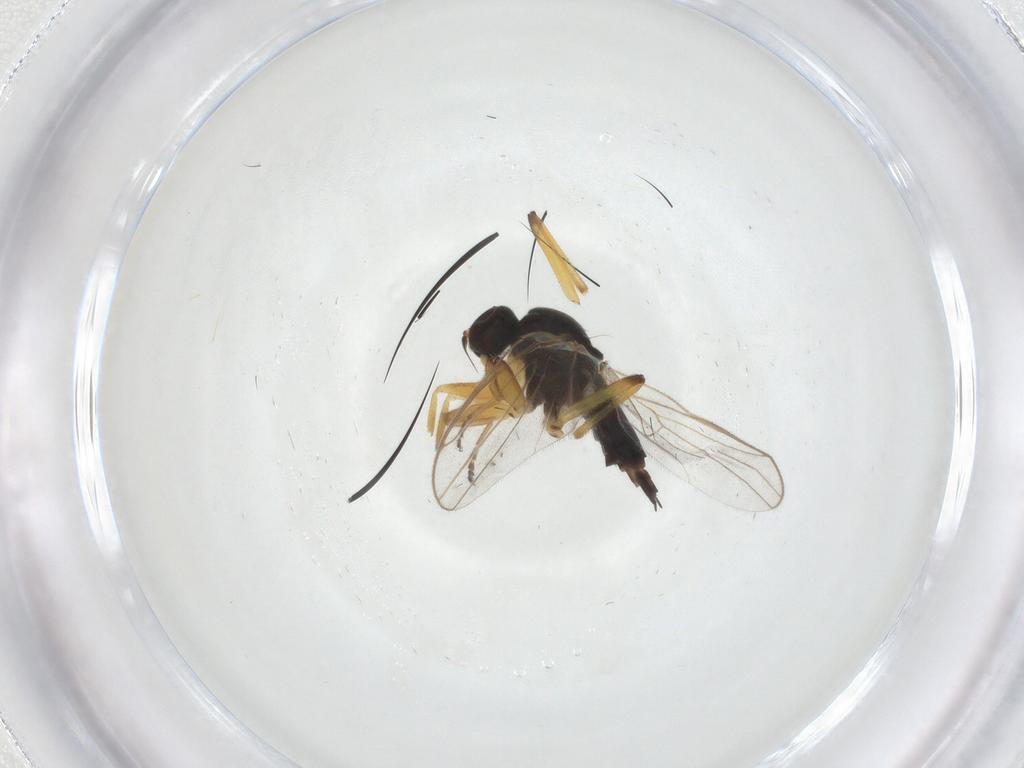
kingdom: Animalia
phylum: Arthropoda
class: Insecta
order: Diptera
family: Hybotidae
